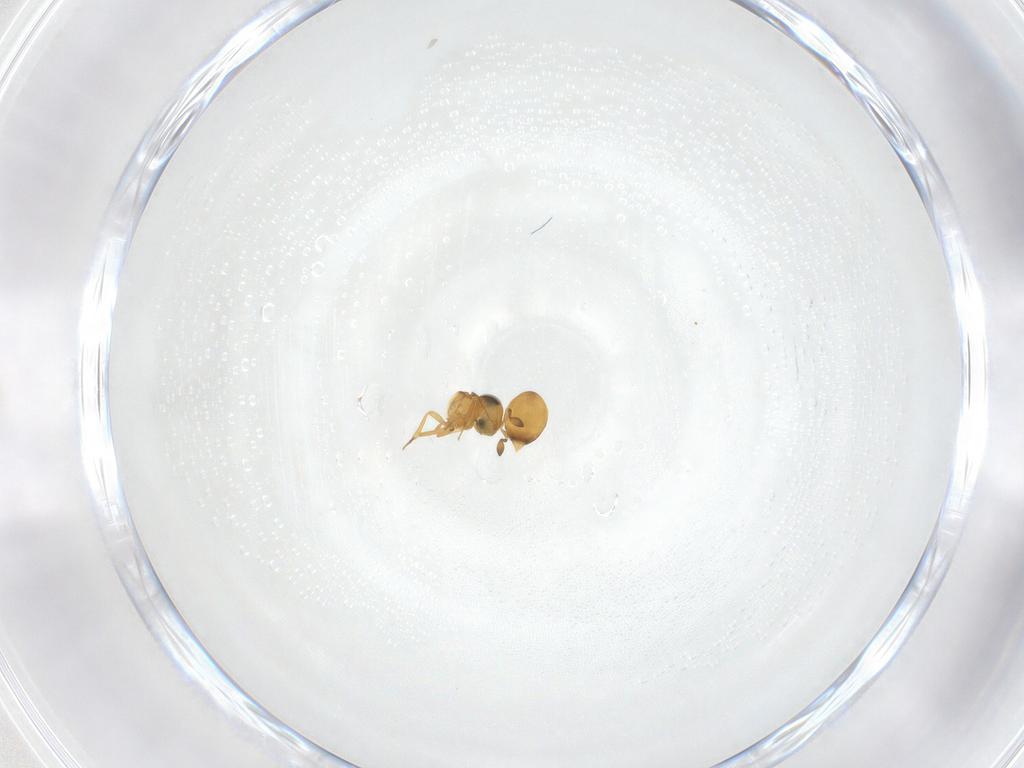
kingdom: Animalia
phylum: Arthropoda
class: Insecta
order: Hymenoptera
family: Scelionidae
